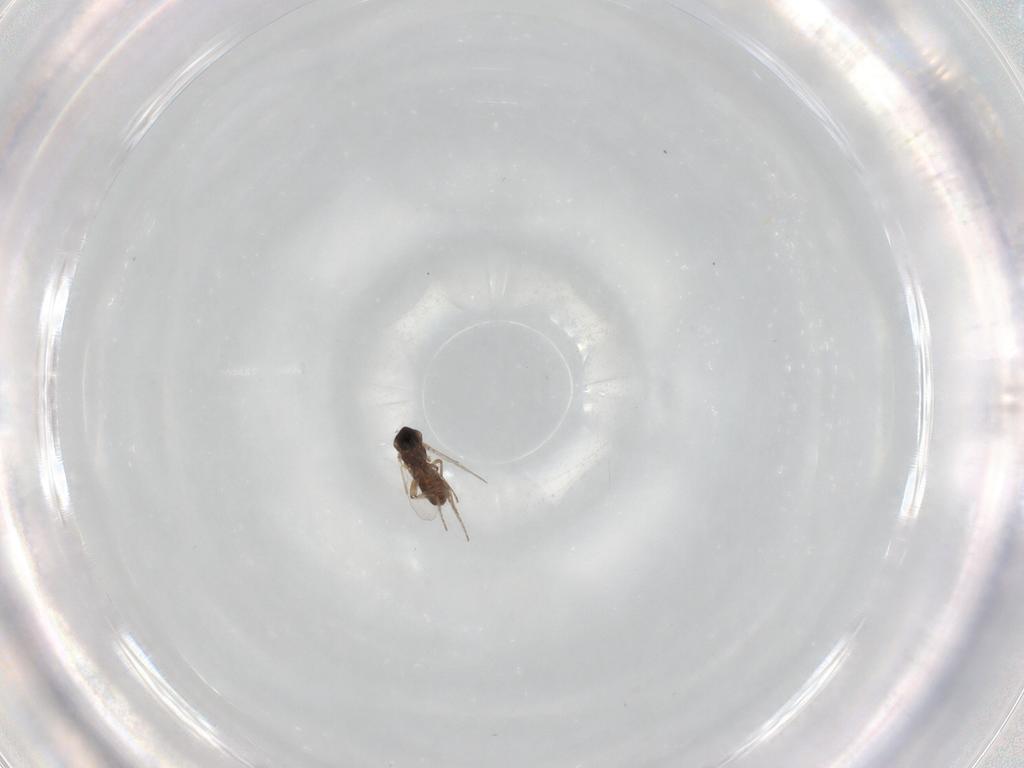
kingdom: Animalia
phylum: Arthropoda
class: Insecta
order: Diptera
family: Ceratopogonidae
